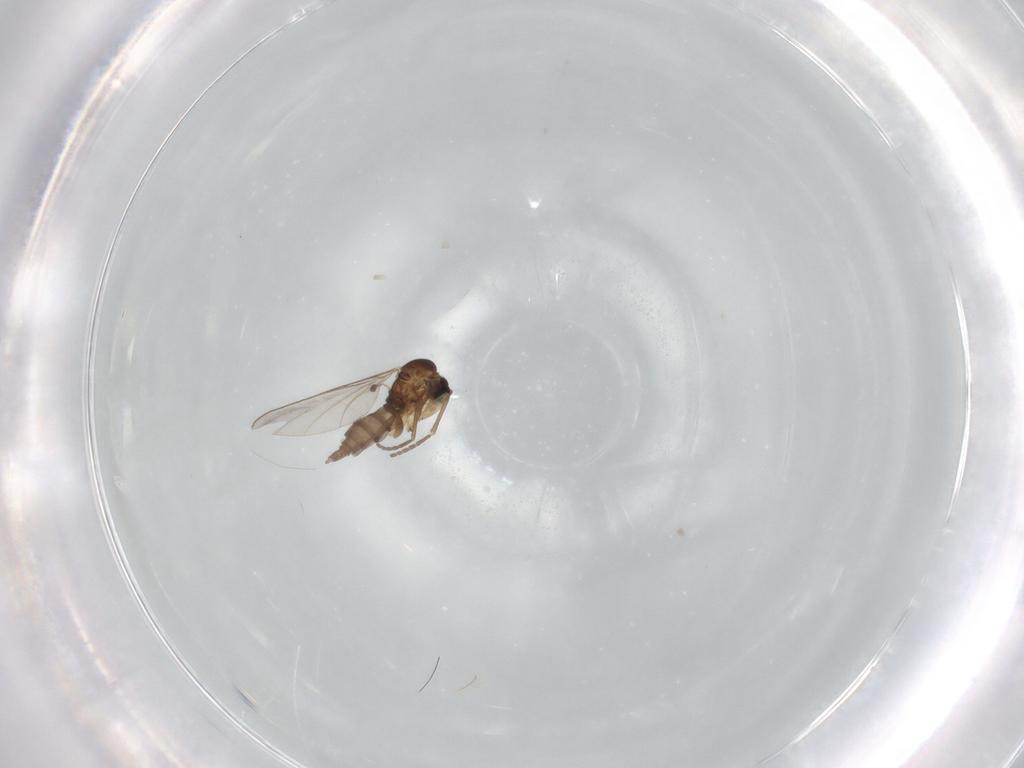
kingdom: Animalia
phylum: Arthropoda
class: Insecta
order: Diptera
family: Sciaridae
